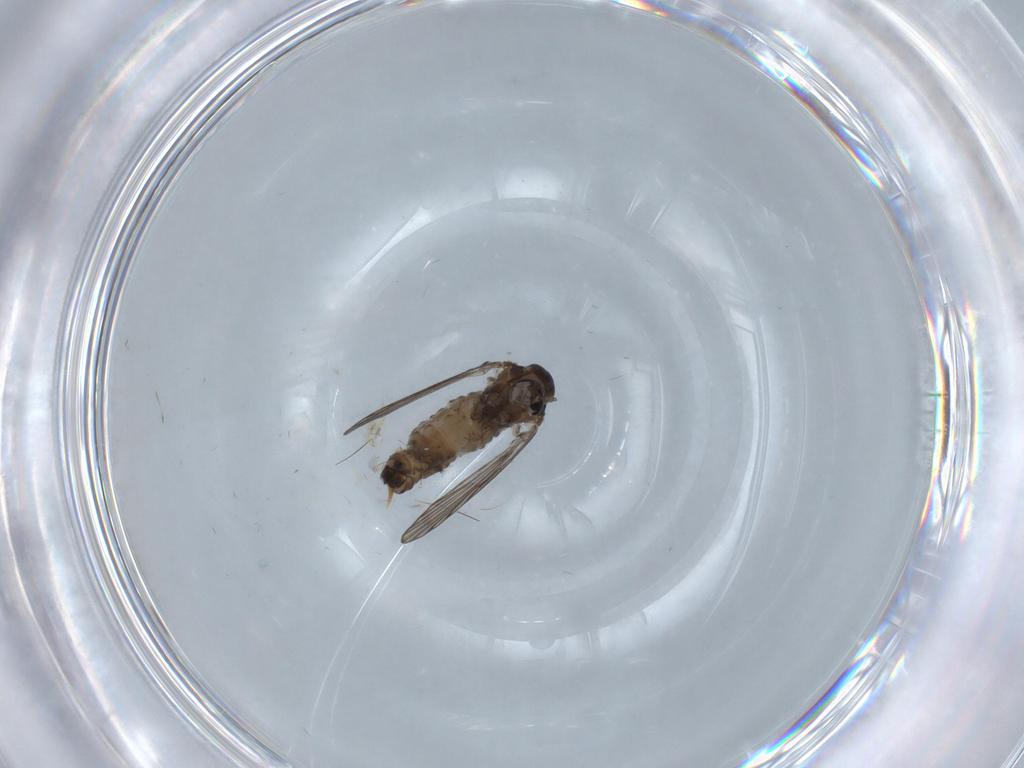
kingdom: Animalia
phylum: Arthropoda
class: Insecta
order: Diptera
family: Psychodidae
